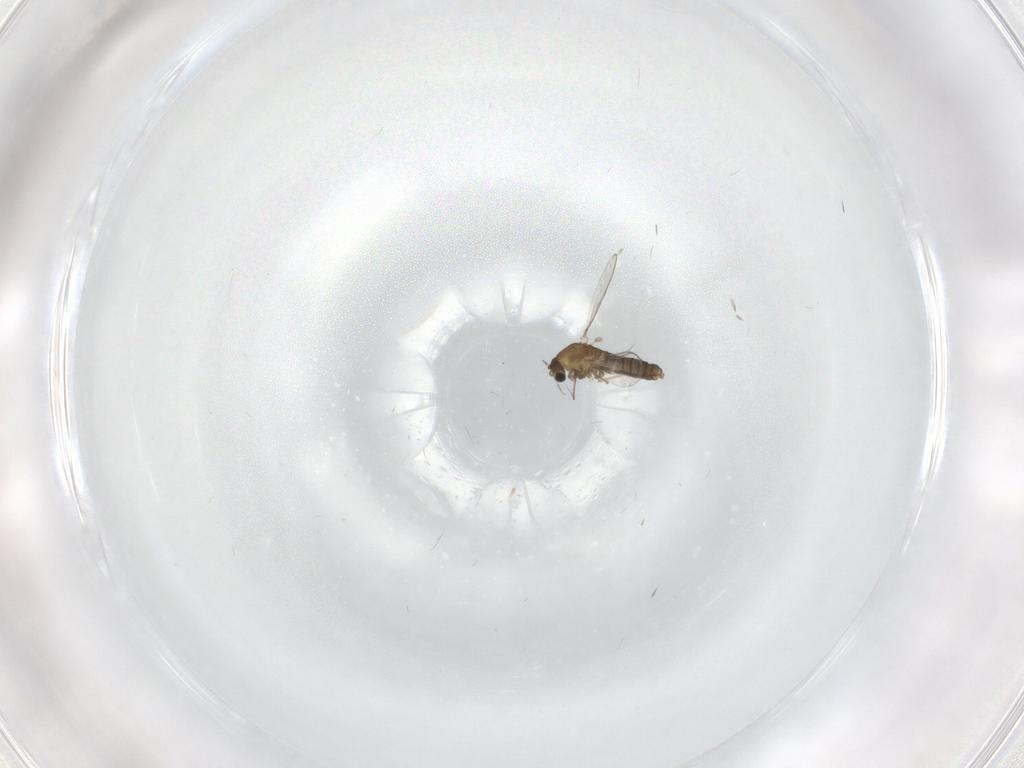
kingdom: Animalia
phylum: Arthropoda
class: Insecta
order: Diptera
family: Chironomidae
